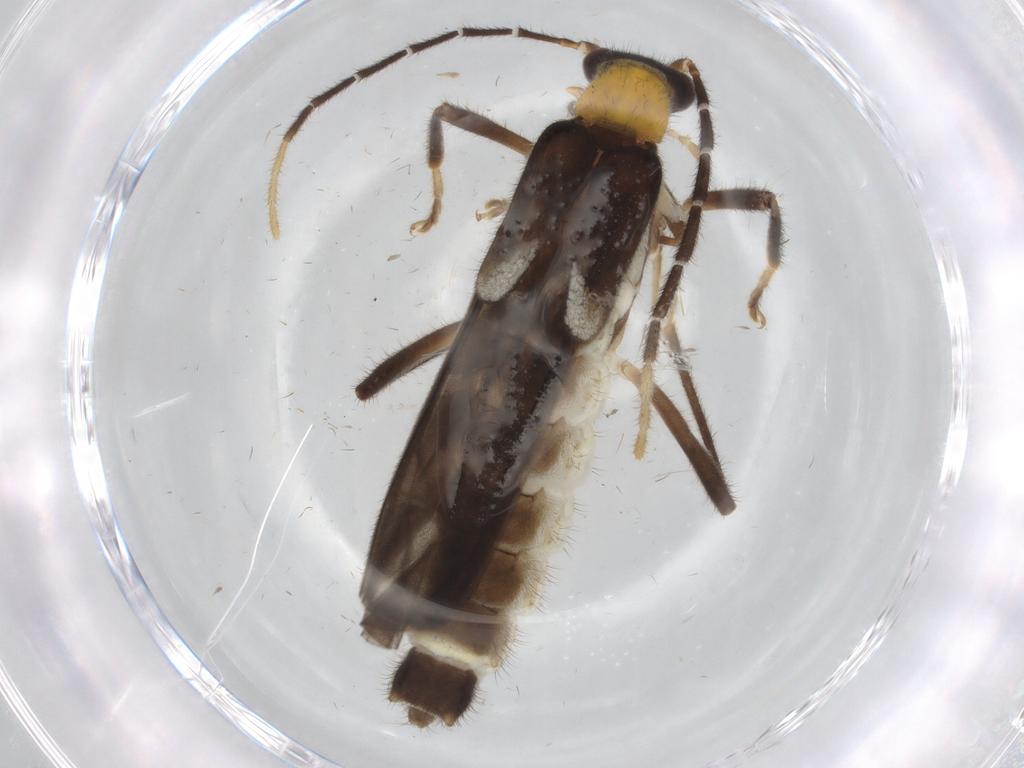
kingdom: Animalia
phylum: Arthropoda
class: Insecta
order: Coleoptera
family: Cantharidae
